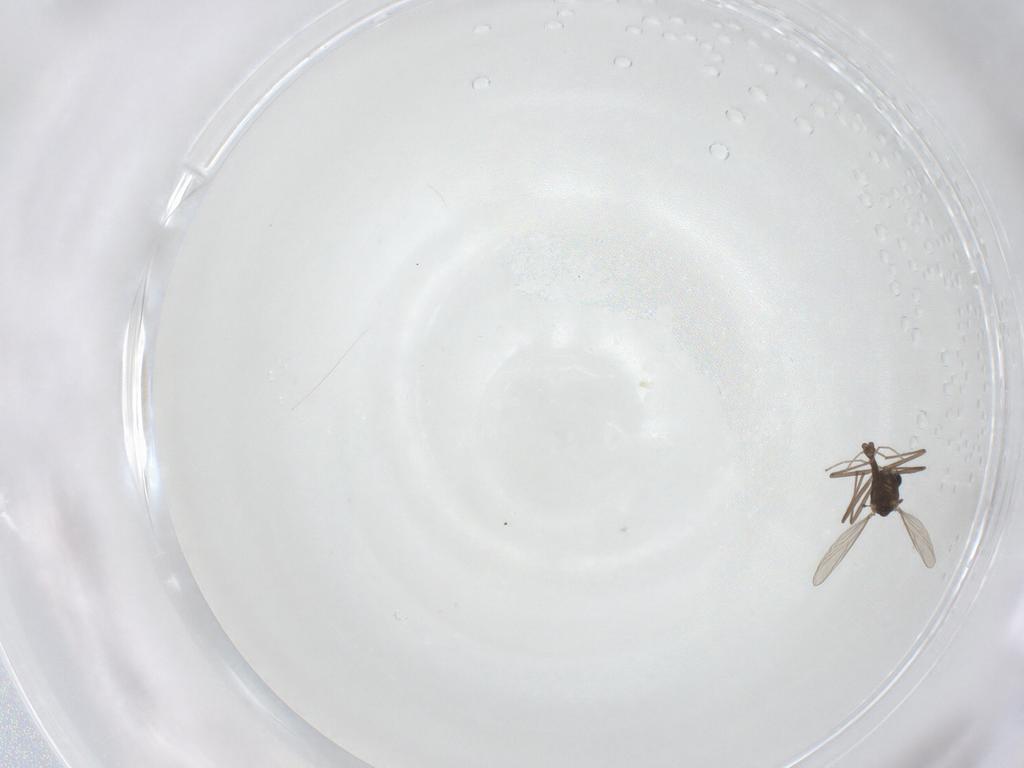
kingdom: Animalia
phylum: Arthropoda
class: Insecta
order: Diptera
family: Chironomidae
